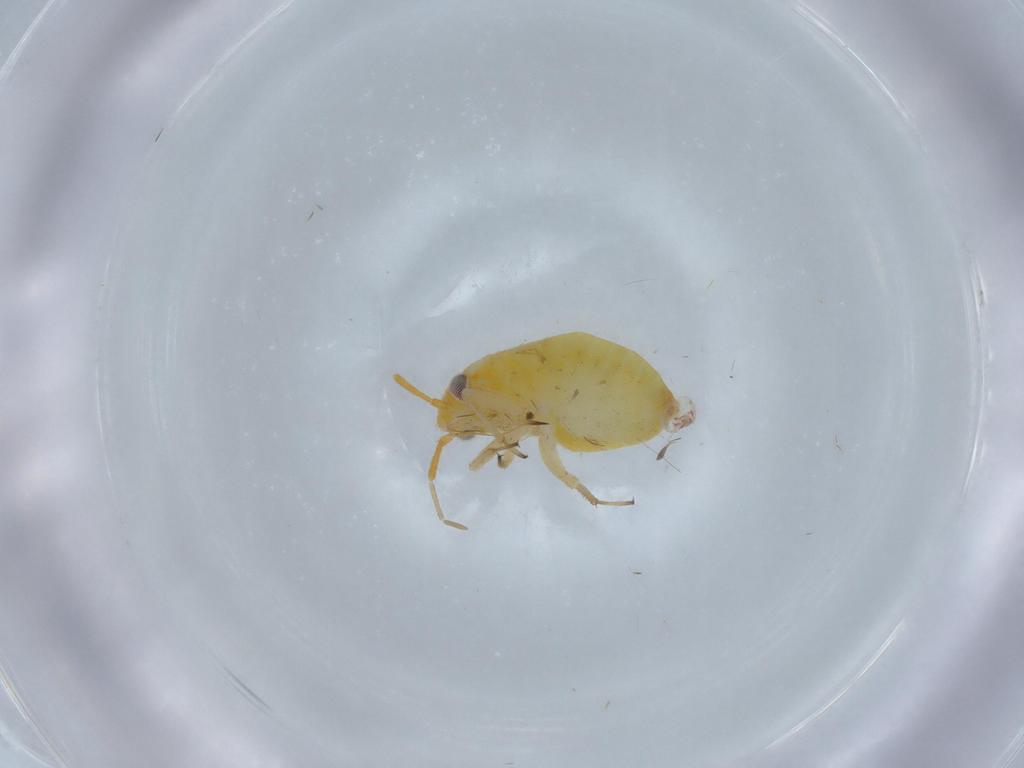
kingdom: Animalia
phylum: Arthropoda
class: Insecta
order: Hemiptera
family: Miridae
